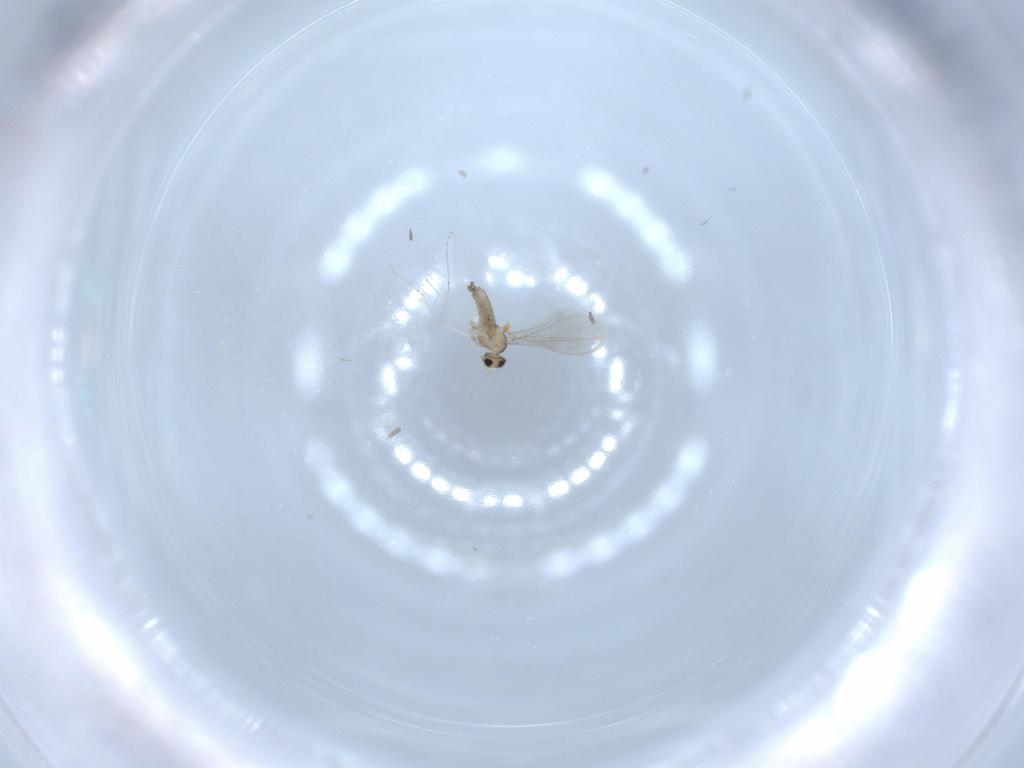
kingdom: Animalia
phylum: Arthropoda
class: Insecta
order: Diptera
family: Cecidomyiidae
